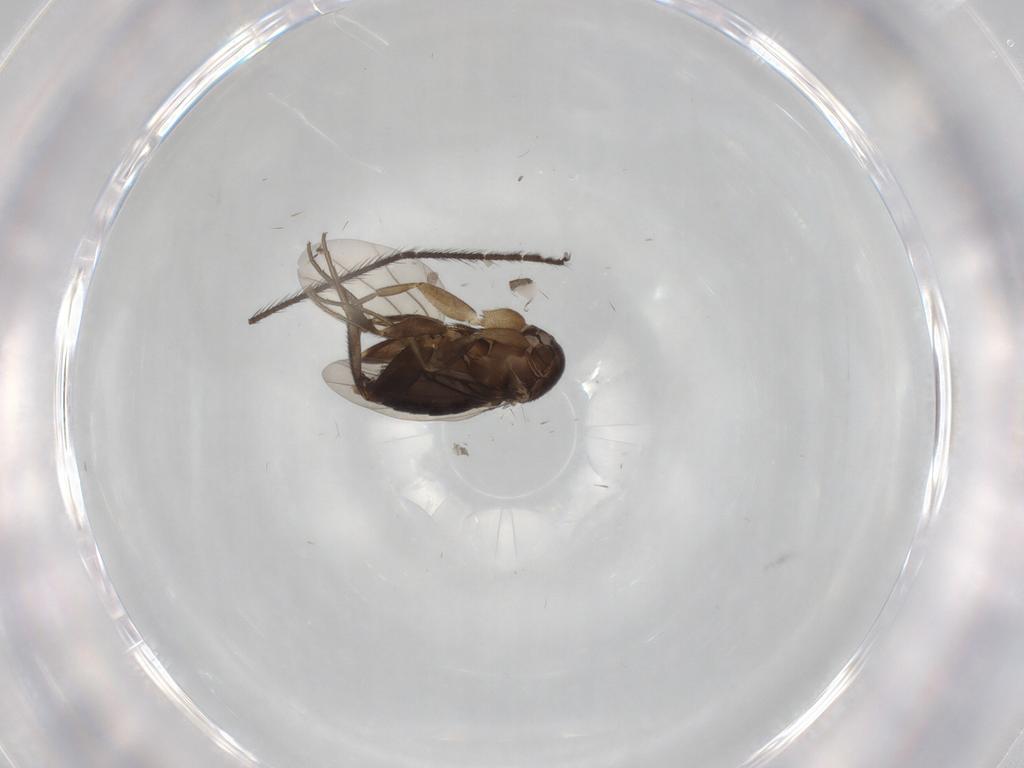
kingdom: Animalia
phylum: Arthropoda
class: Insecta
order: Diptera
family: Phoridae
